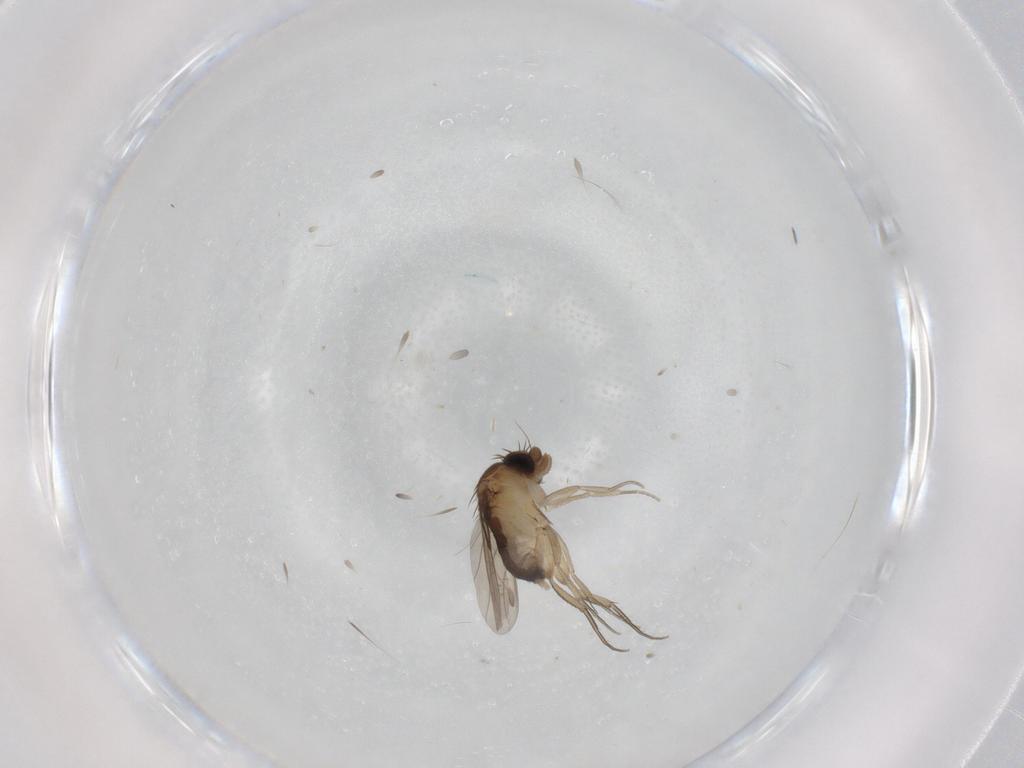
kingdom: Animalia
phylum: Arthropoda
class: Insecta
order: Diptera
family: Phoridae
